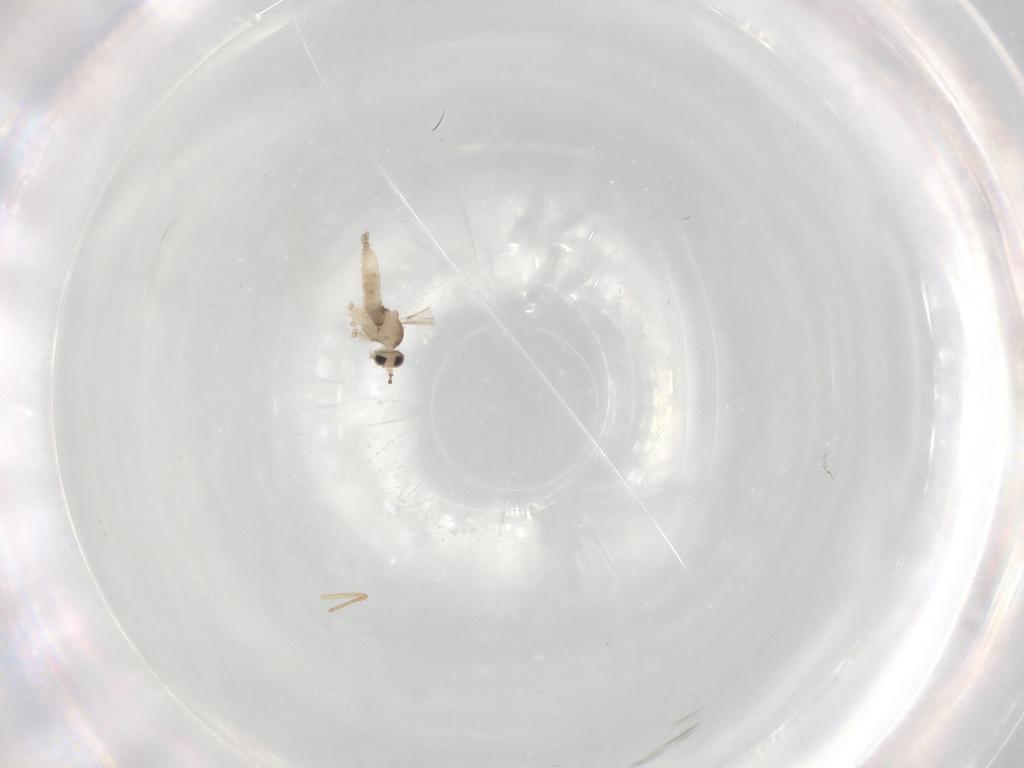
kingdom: Animalia
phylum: Arthropoda
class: Insecta
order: Diptera
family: Chironomidae
